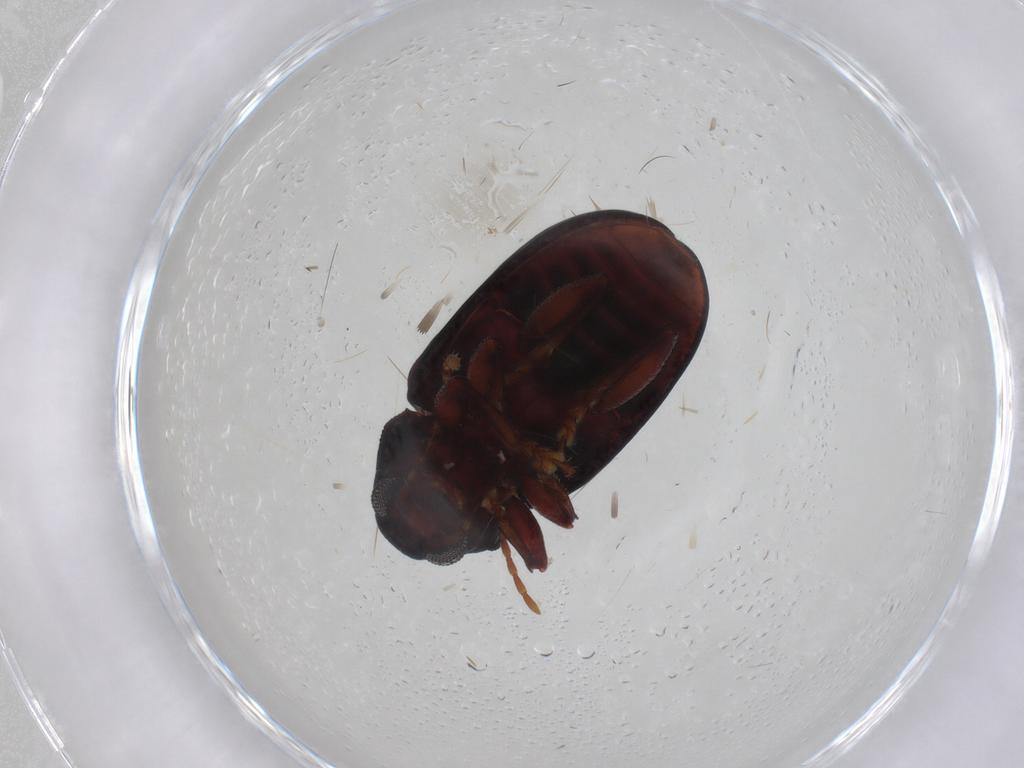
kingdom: Animalia
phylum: Arthropoda
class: Insecta
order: Coleoptera
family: Chrysomelidae
